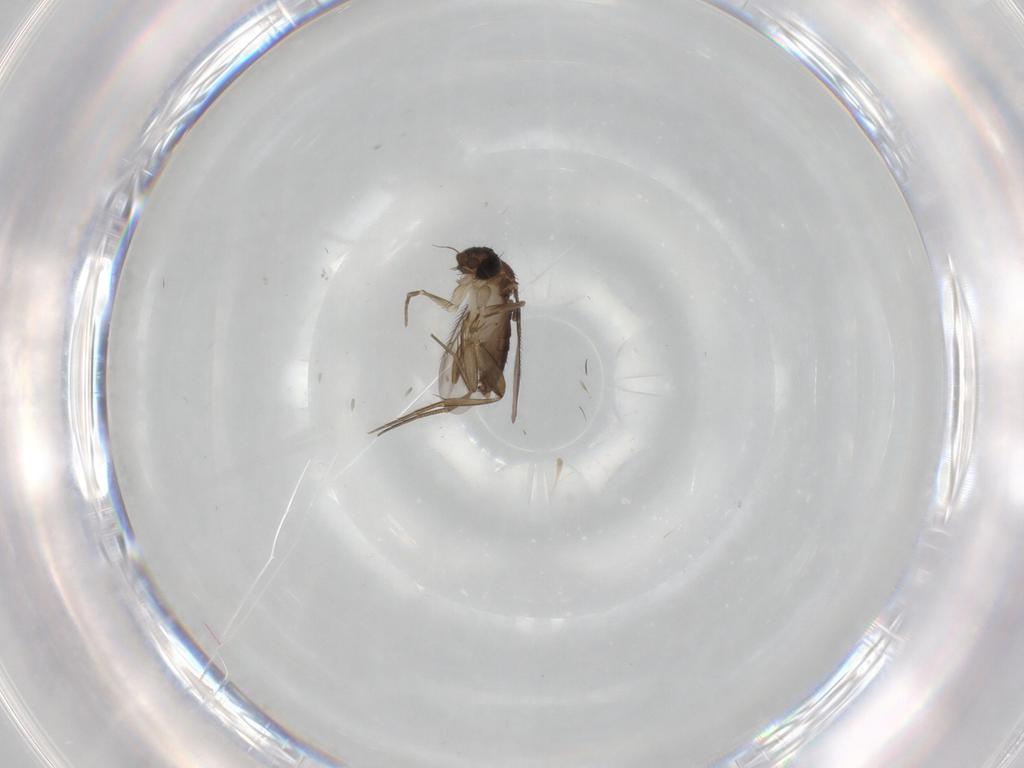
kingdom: Animalia
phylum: Arthropoda
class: Insecta
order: Diptera
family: Phoridae
